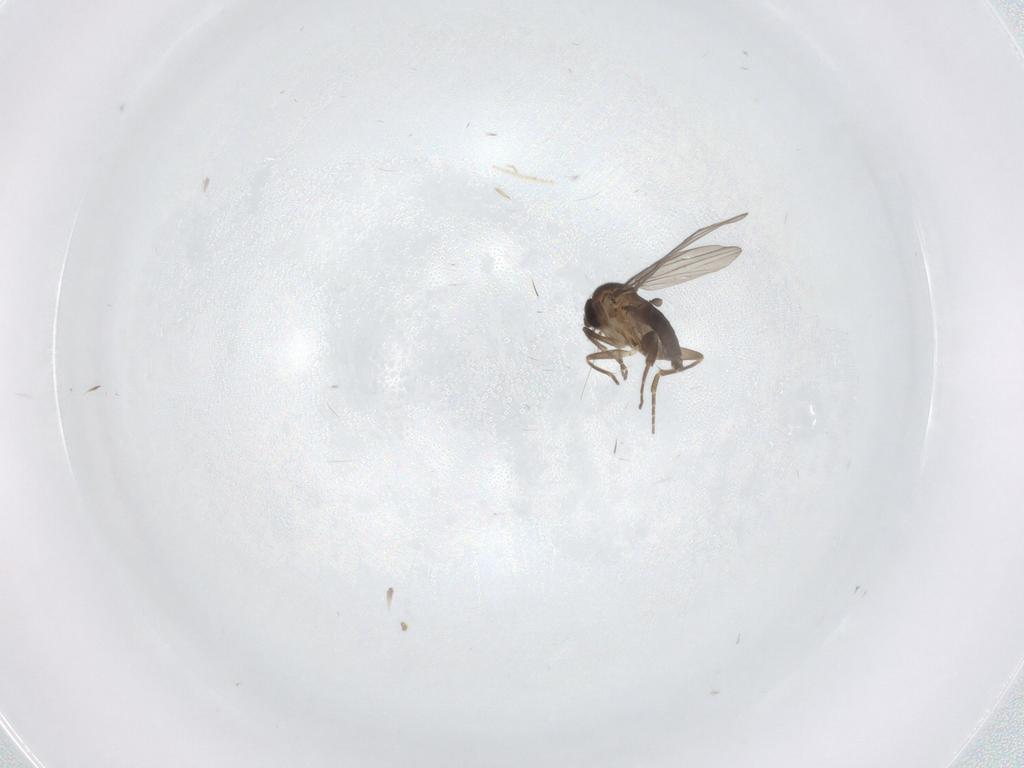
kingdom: Animalia
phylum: Arthropoda
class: Insecta
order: Diptera
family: Phoridae
